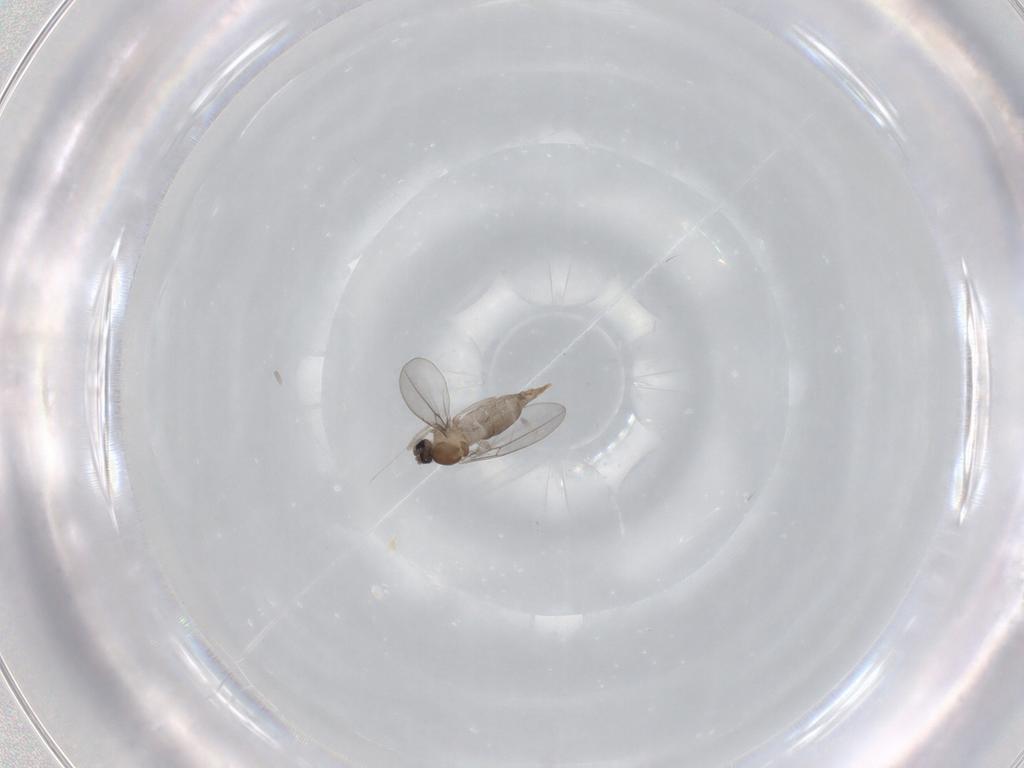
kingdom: Animalia
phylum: Arthropoda
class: Insecta
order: Diptera
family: Cecidomyiidae
